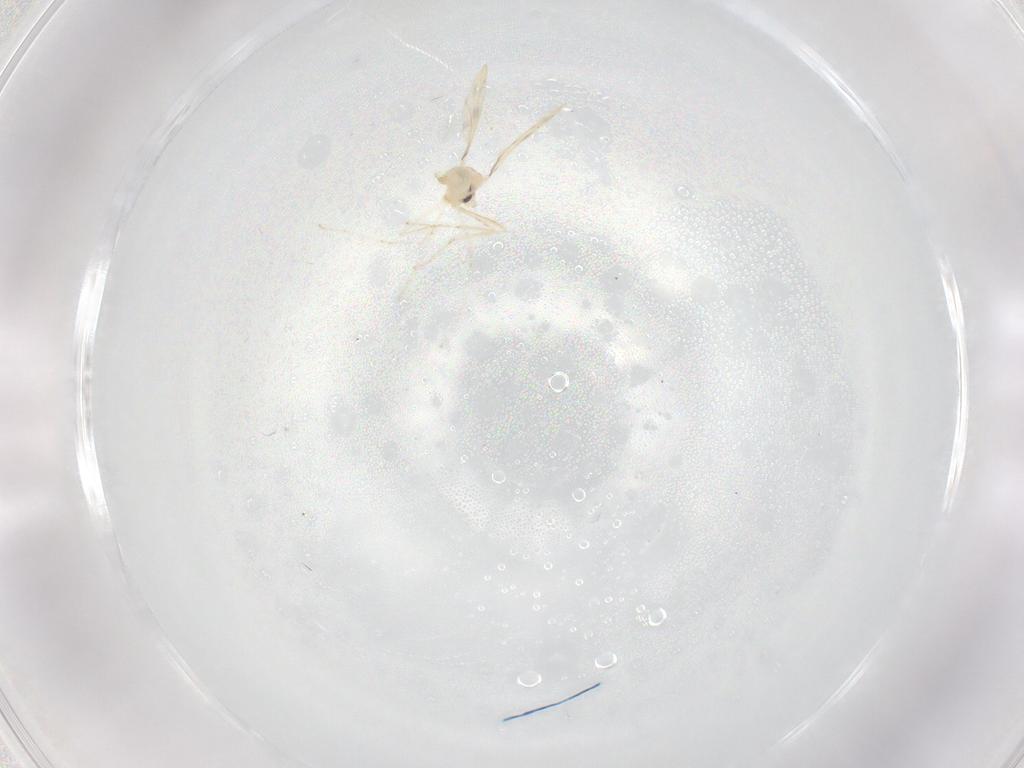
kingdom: Animalia
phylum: Arthropoda
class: Insecta
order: Diptera
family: Cecidomyiidae
